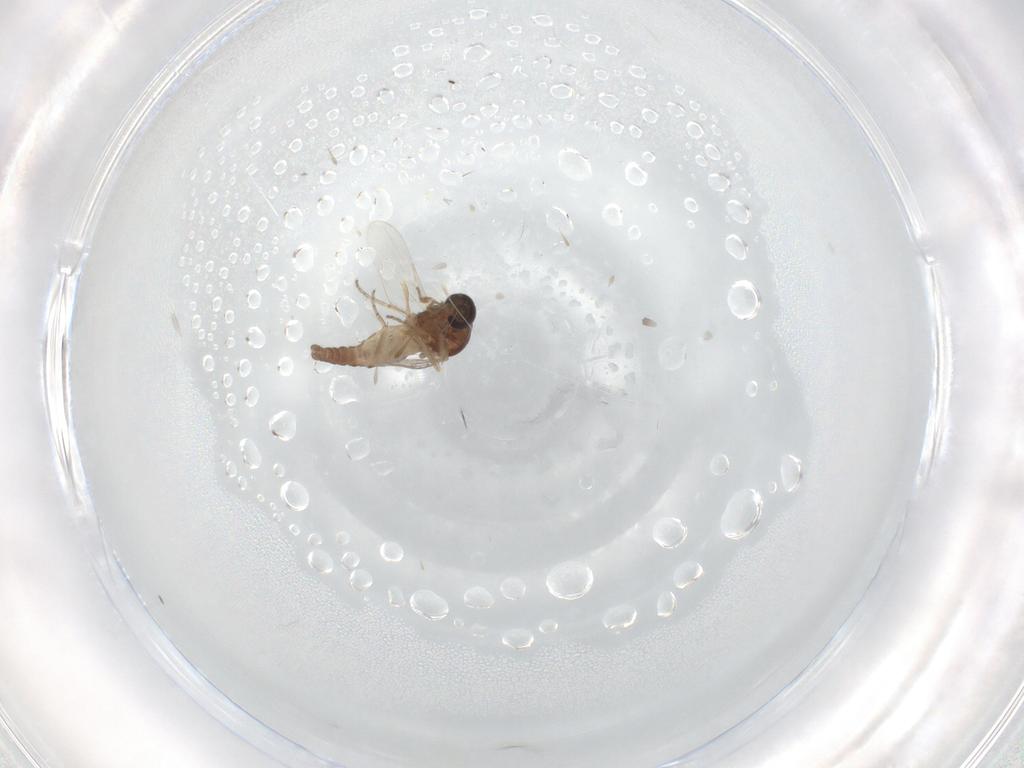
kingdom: Animalia
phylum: Arthropoda
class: Insecta
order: Diptera
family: Ceratopogonidae
